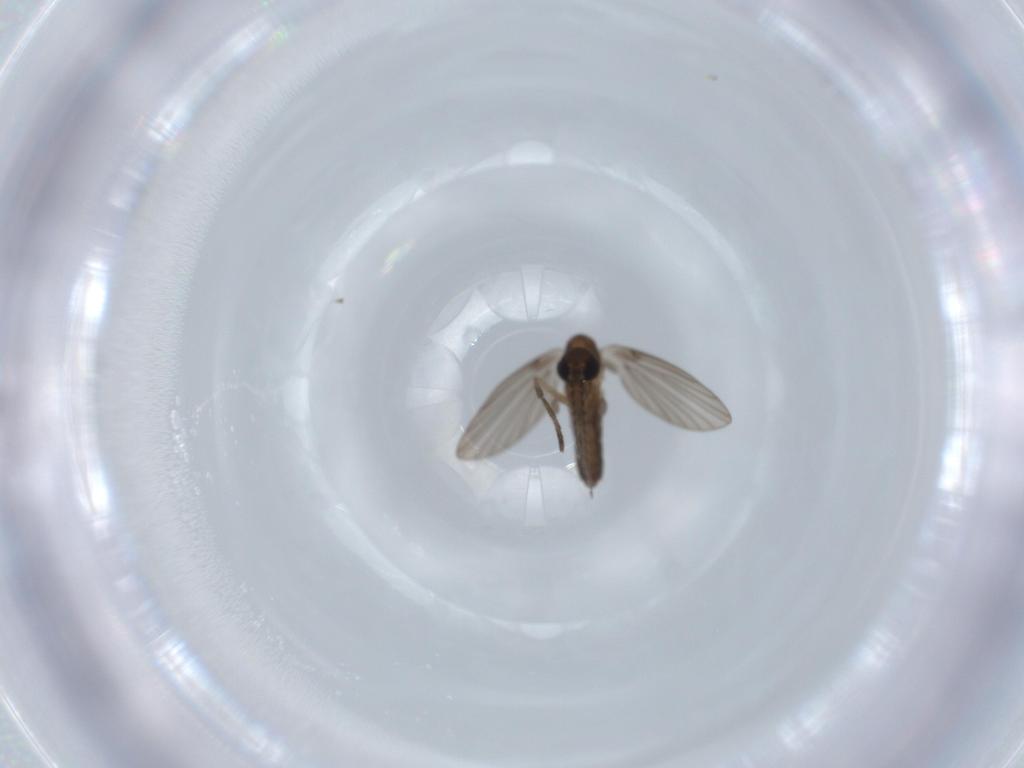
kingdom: Animalia
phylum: Arthropoda
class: Insecta
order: Diptera
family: Psychodidae
